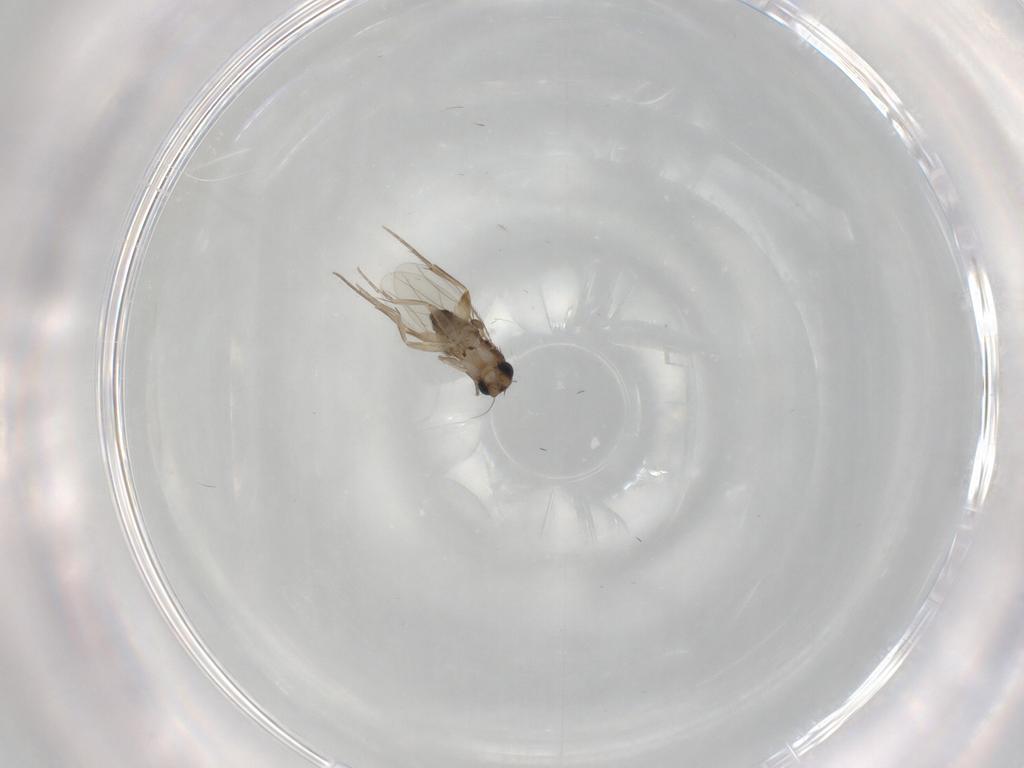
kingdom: Animalia
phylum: Arthropoda
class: Insecta
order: Diptera
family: Phoridae
